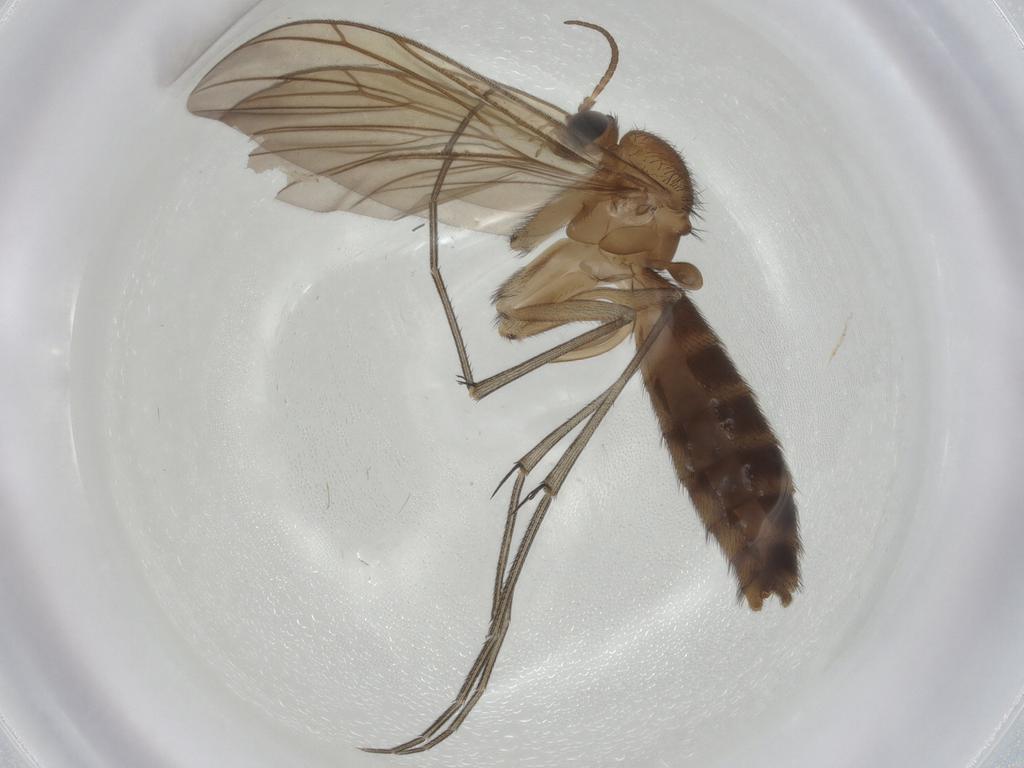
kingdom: Animalia
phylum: Arthropoda
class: Insecta
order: Diptera
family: Keroplatidae
